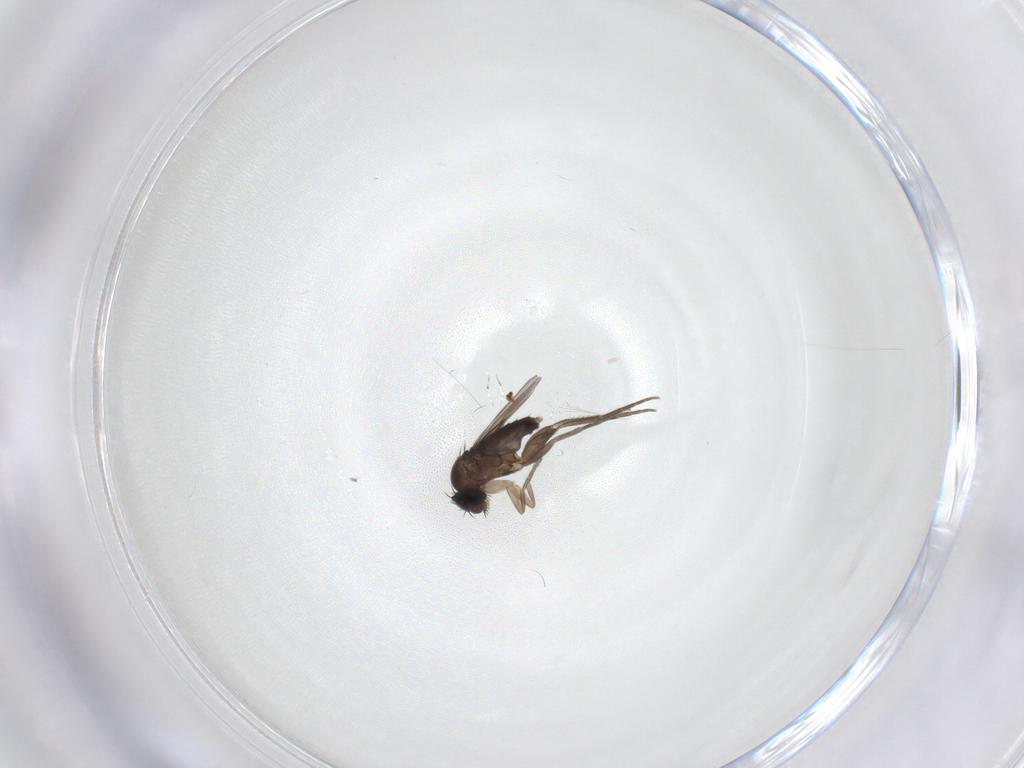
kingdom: Animalia
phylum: Arthropoda
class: Insecta
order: Diptera
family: Phoridae
